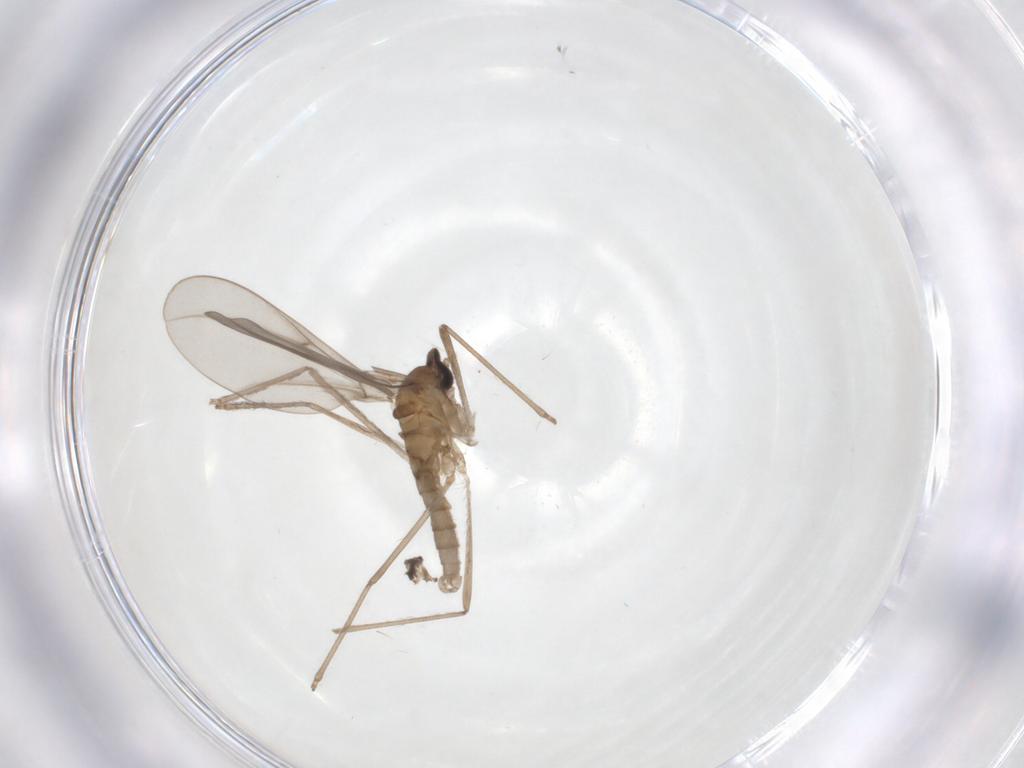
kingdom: Animalia
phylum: Arthropoda
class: Insecta
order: Diptera
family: Cecidomyiidae
